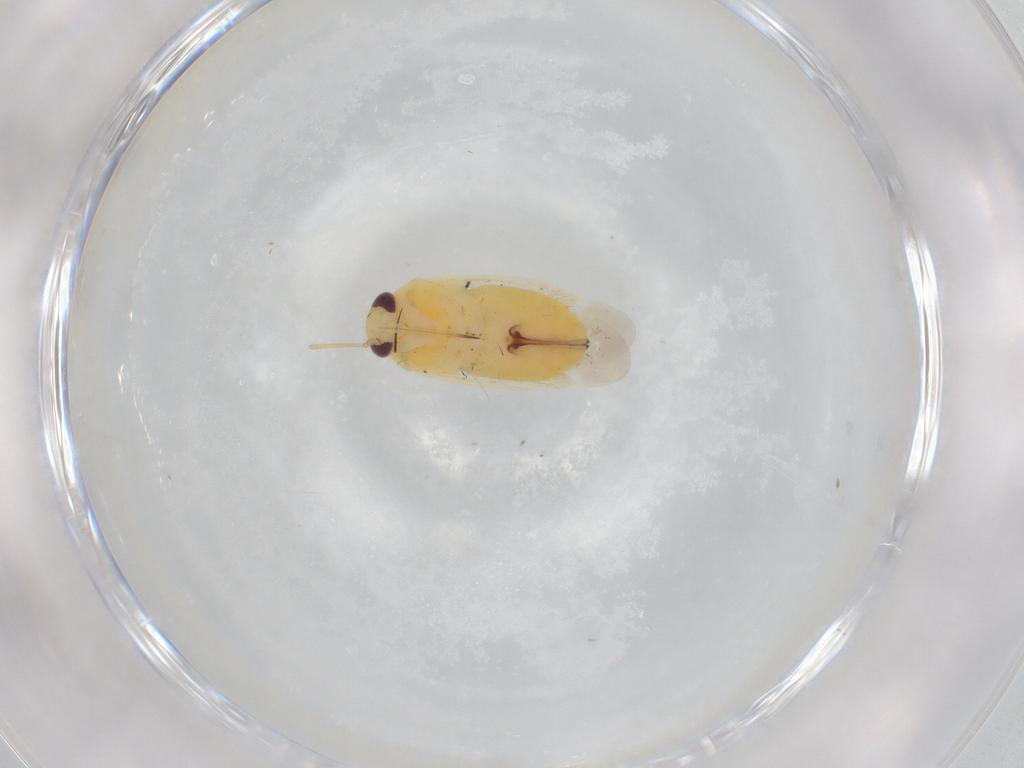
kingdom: Animalia
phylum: Arthropoda
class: Insecta
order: Hemiptera
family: Miridae
